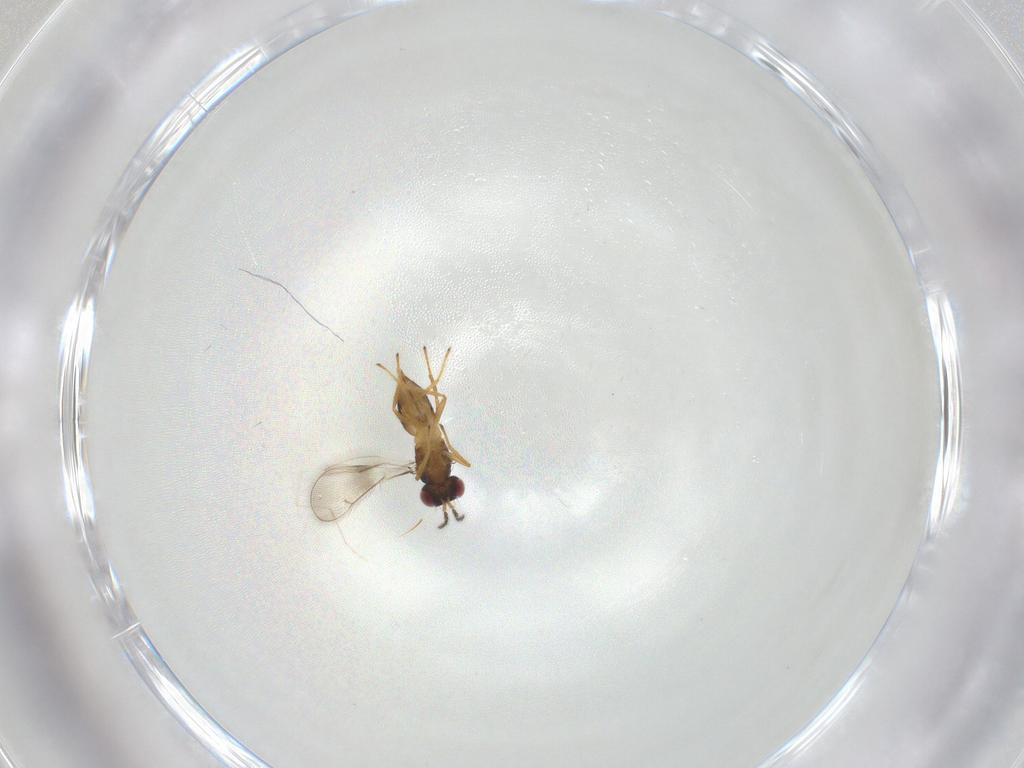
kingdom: Animalia
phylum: Arthropoda
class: Insecta
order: Hymenoptera
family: Eulophidae
